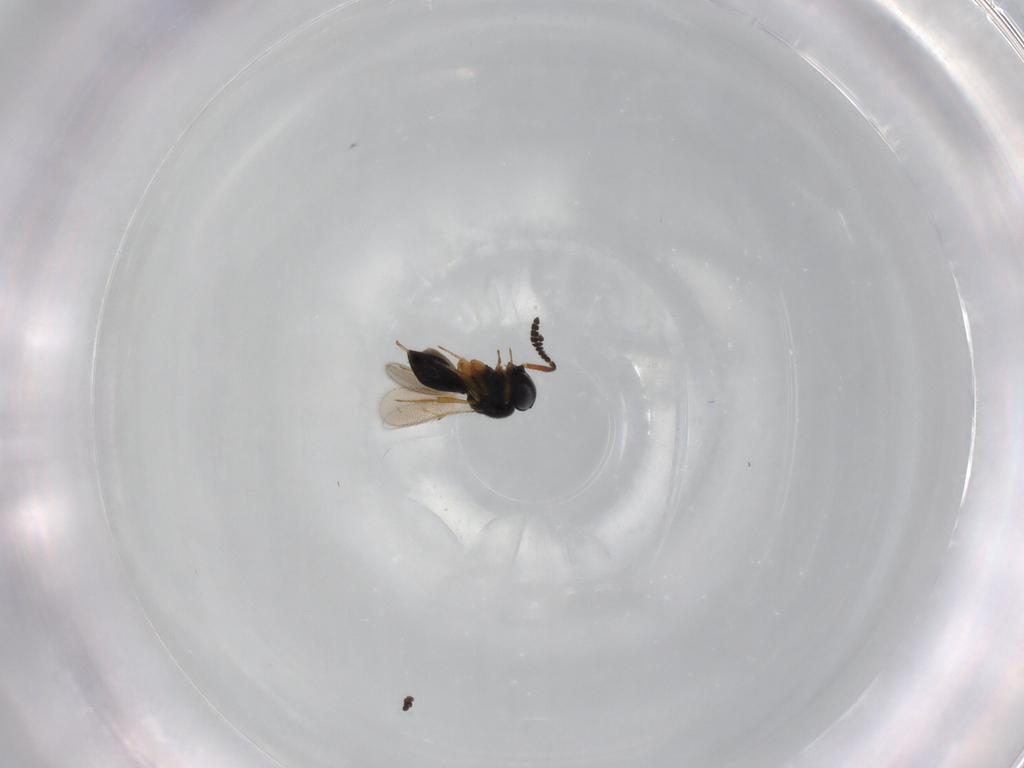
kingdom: Animalia
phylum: Arthropoda
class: Insecta
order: Hymenoptera
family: Scelionidae
